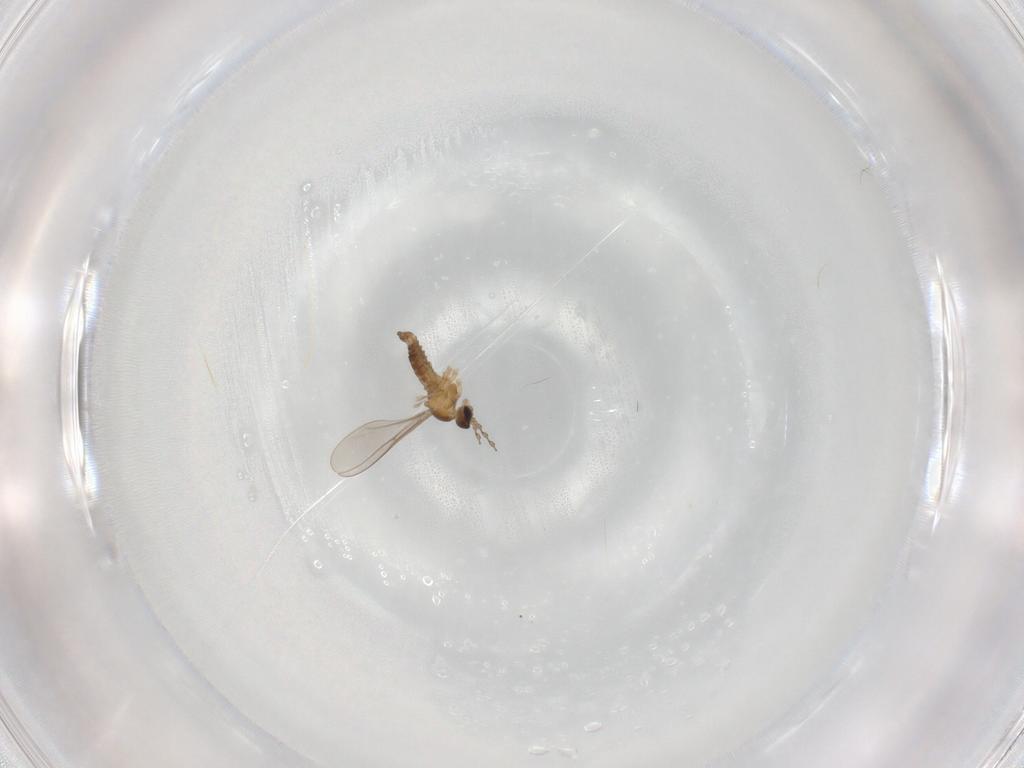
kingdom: Animalia
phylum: Arthropoda
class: Insecta
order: Diptera
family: Cecidomyiidae
